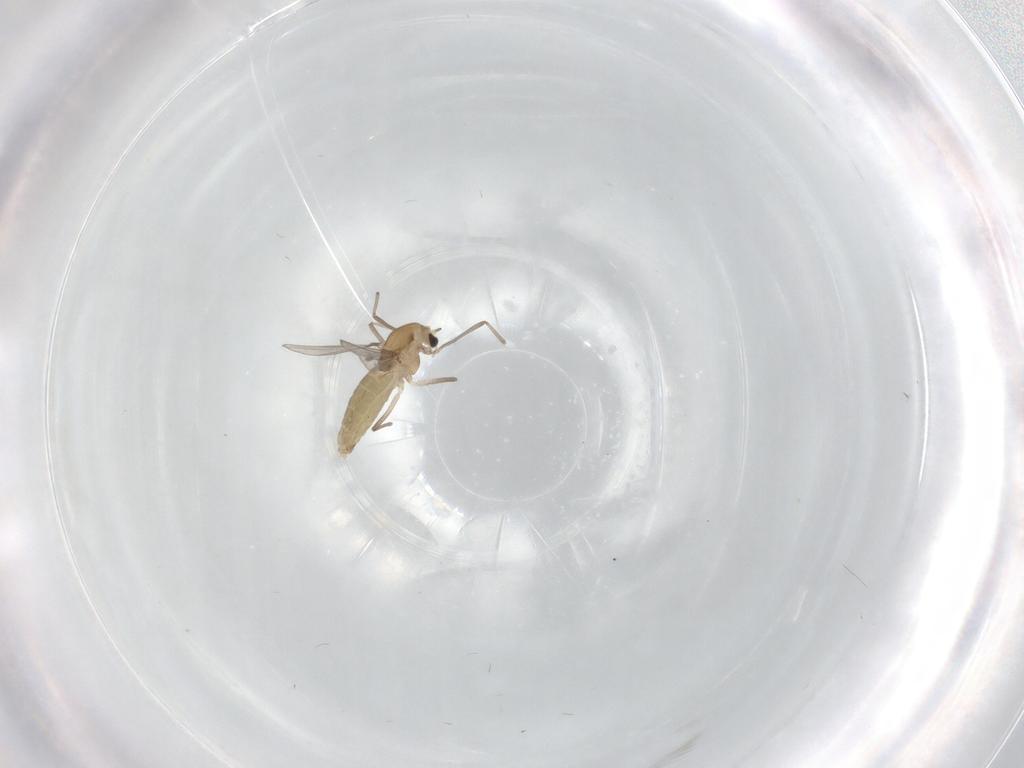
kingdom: Animalia
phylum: Arthropoda
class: Insecta
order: Diptera
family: Chironomidae
